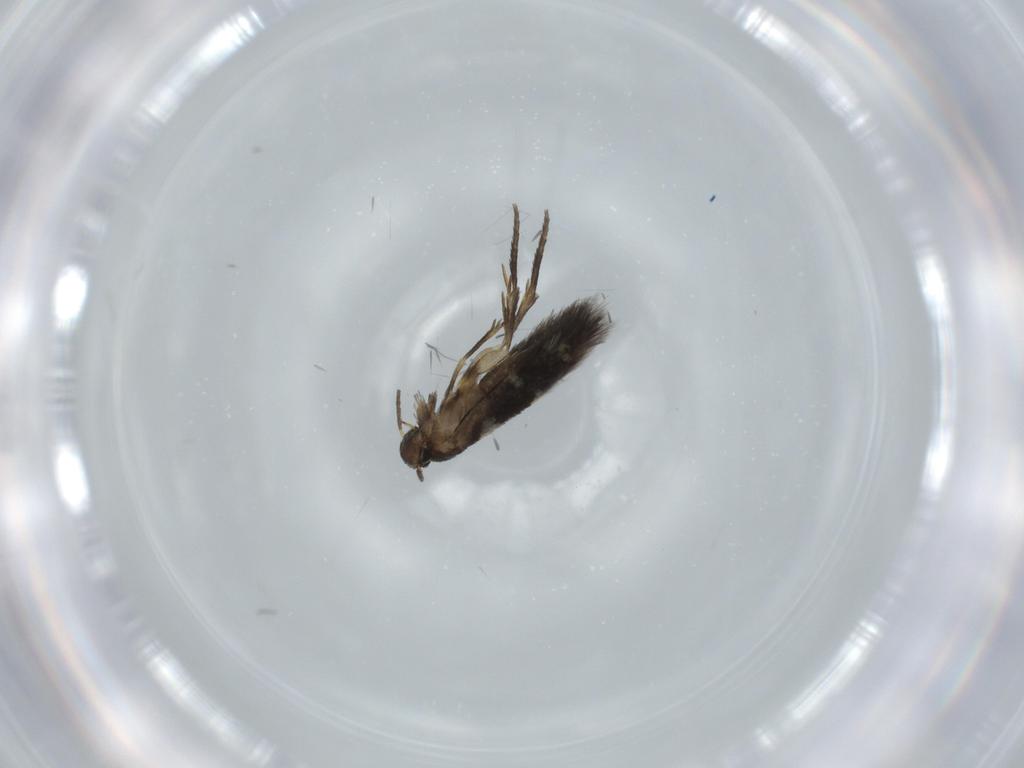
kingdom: Animalia
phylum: Arthropoda
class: Insecta
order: Lepidoptera
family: Heliozelidae
